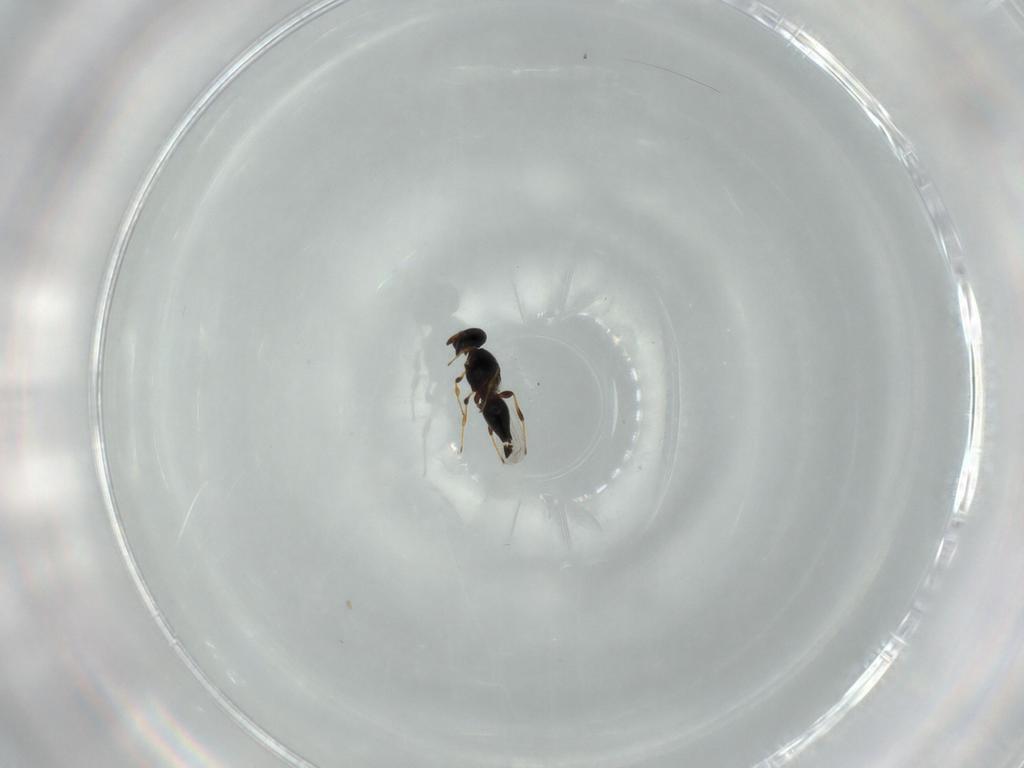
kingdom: Animalia
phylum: Arthropoda
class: Insecta
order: Hymenoptera
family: Platygastridae
